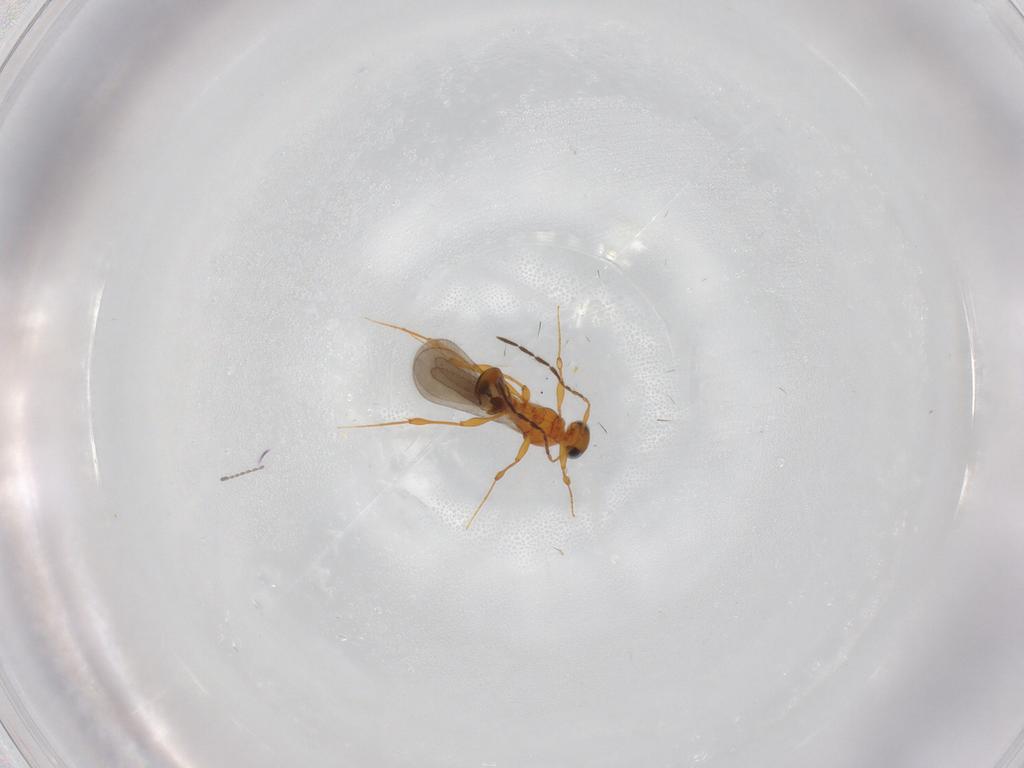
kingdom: Animalia
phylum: Arthropoda
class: Insecta
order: Hymenoptera
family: Platygastridae
